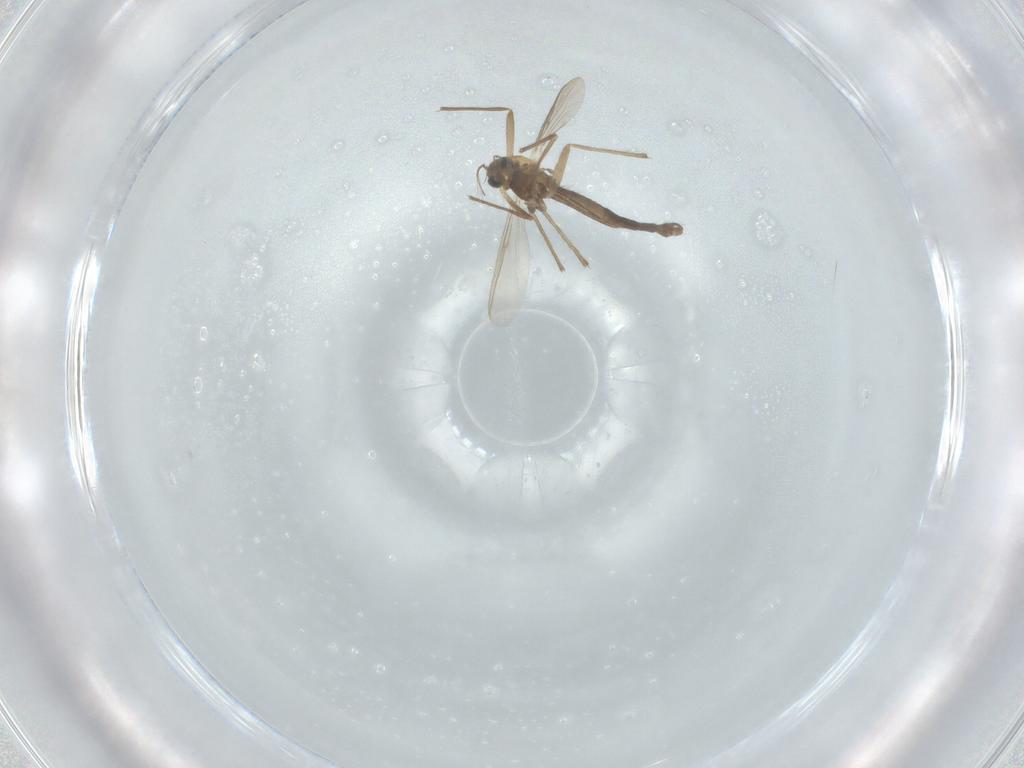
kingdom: Animalia
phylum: Arthropoda
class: Insecta
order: Diptera
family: Chironomidae
